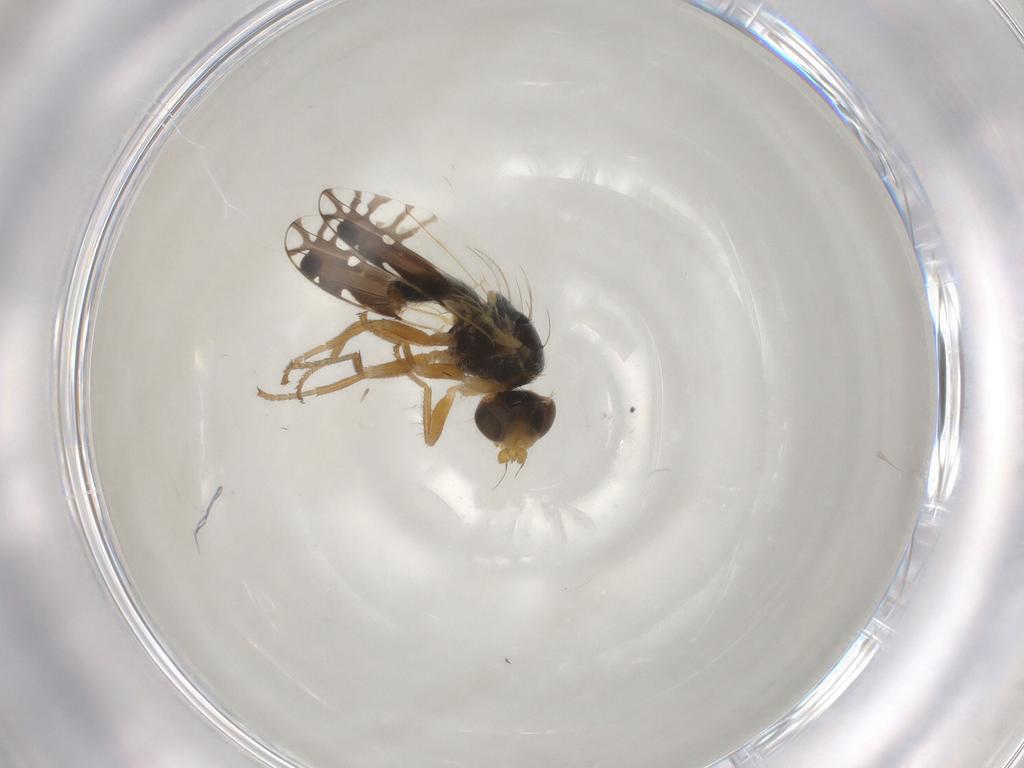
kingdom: Animalia
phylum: Arthropoda
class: Insecta
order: Diptera
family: Tephritidae
